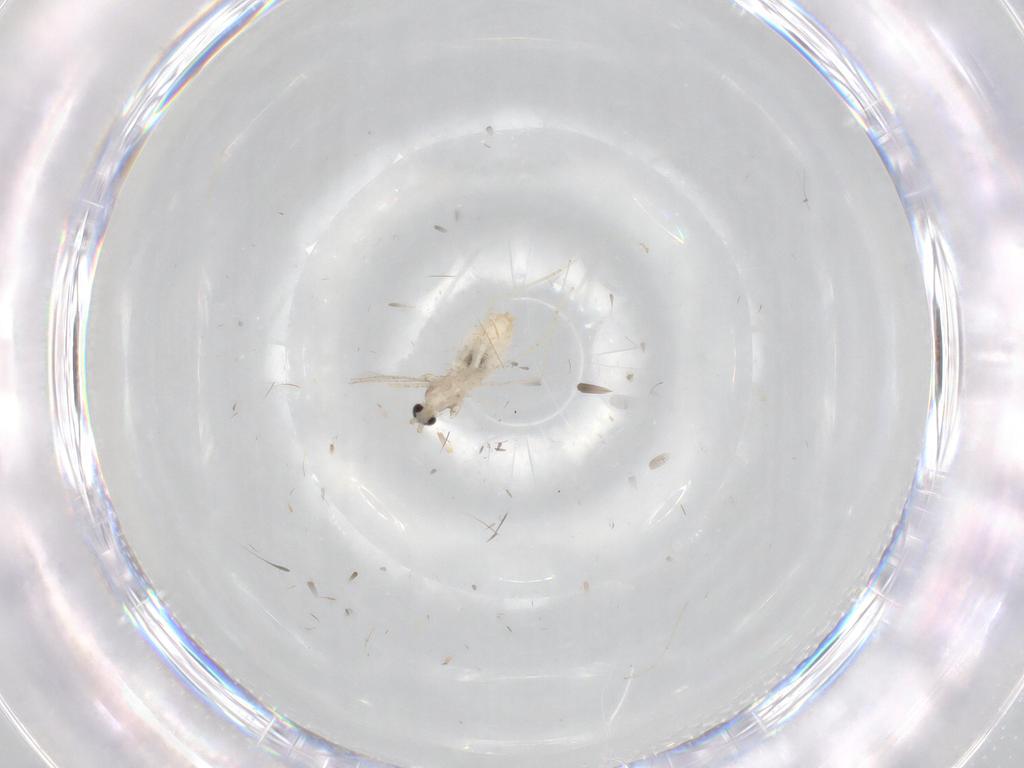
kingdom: Animalia
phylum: Arthropoda
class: Insecta
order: Diptera
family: Cecidomyiidae
